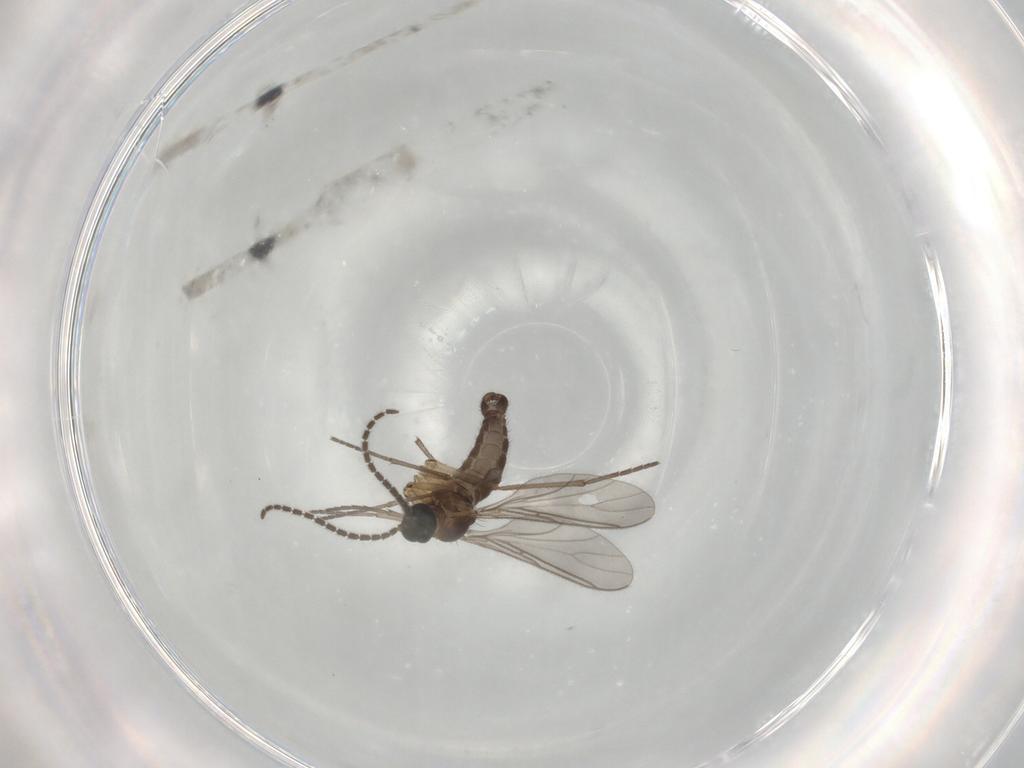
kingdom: Animalia
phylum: Arthropoda
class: Insecta
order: Diptera
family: Sciaridae
